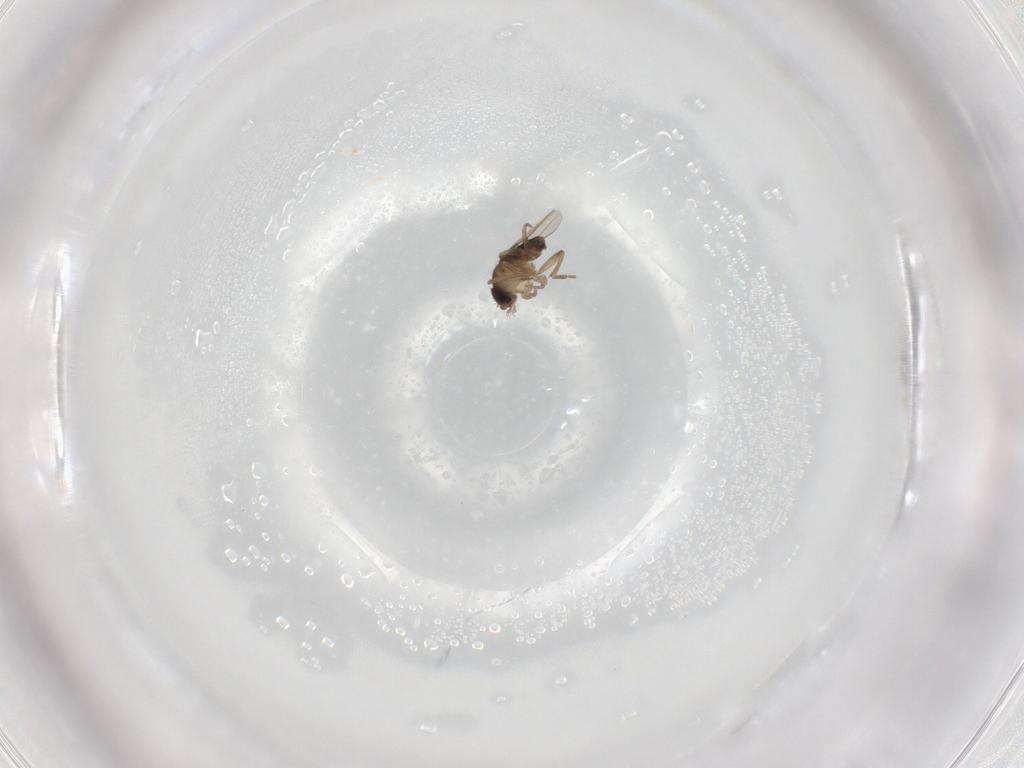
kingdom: Animalia
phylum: Arthropoda
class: Insecta
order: Diptera
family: Phoridae
